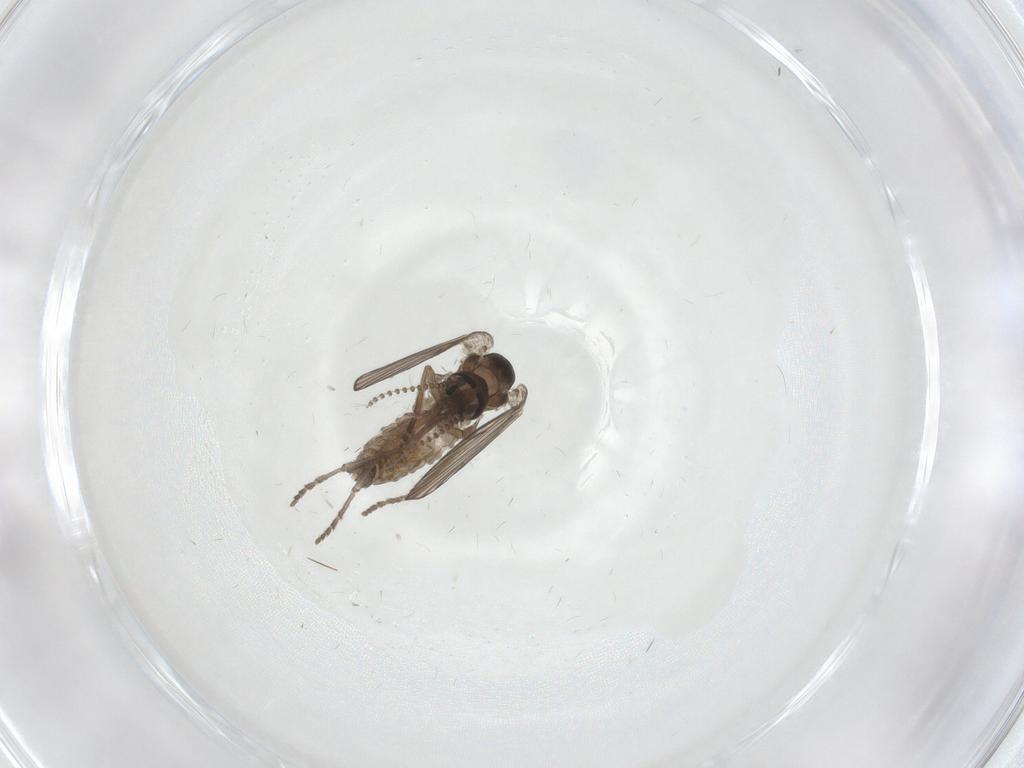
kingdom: Animalia
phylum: Arthropoda
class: Insecta
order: Diptera
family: Psychodidae
